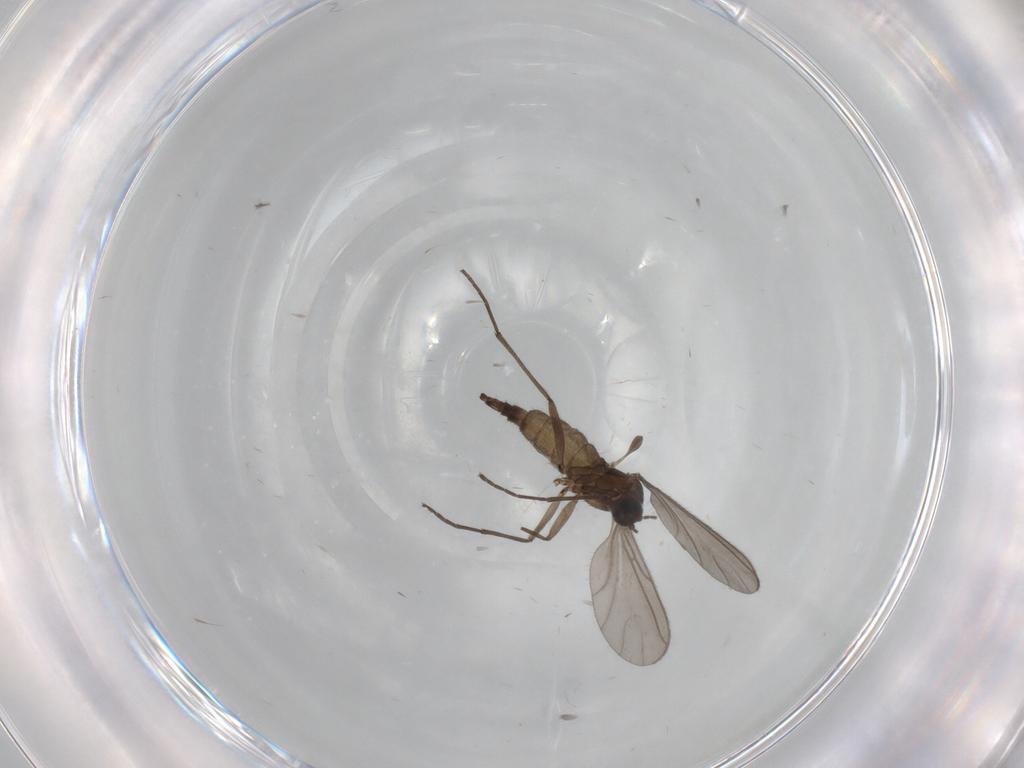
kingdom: Animalia
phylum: Arthropoda
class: Insecta
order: Diptera
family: Sciaridae
